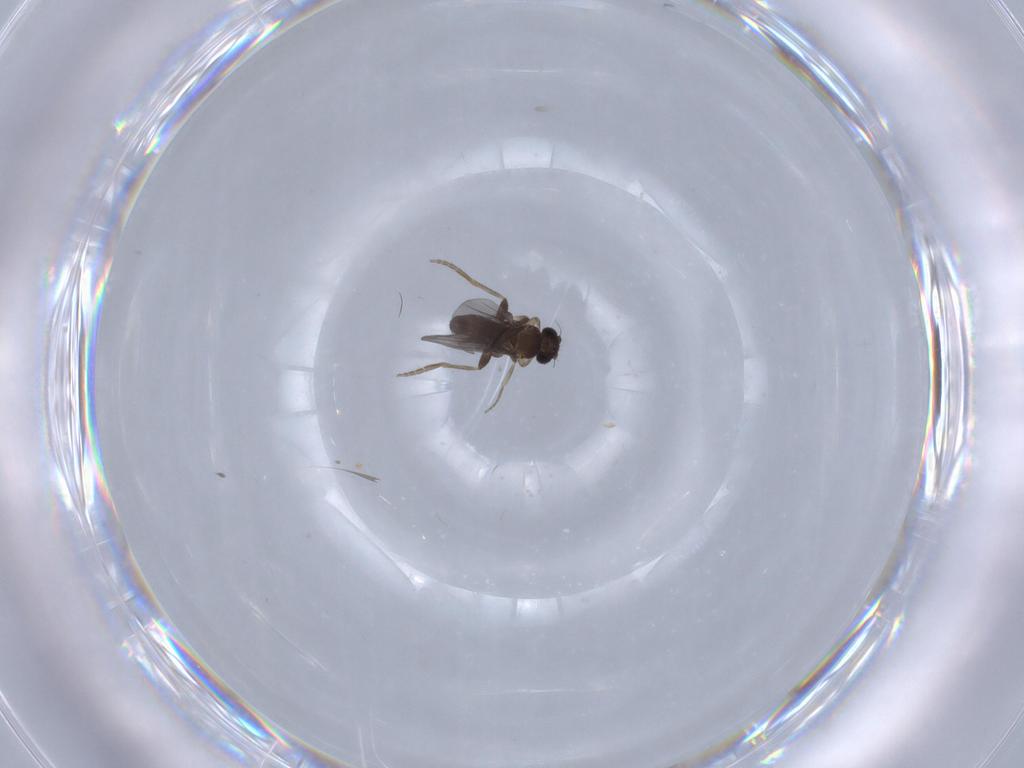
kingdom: Animalia
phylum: Arthropoda
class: Insecta
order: Diptera
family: Chironomidae
